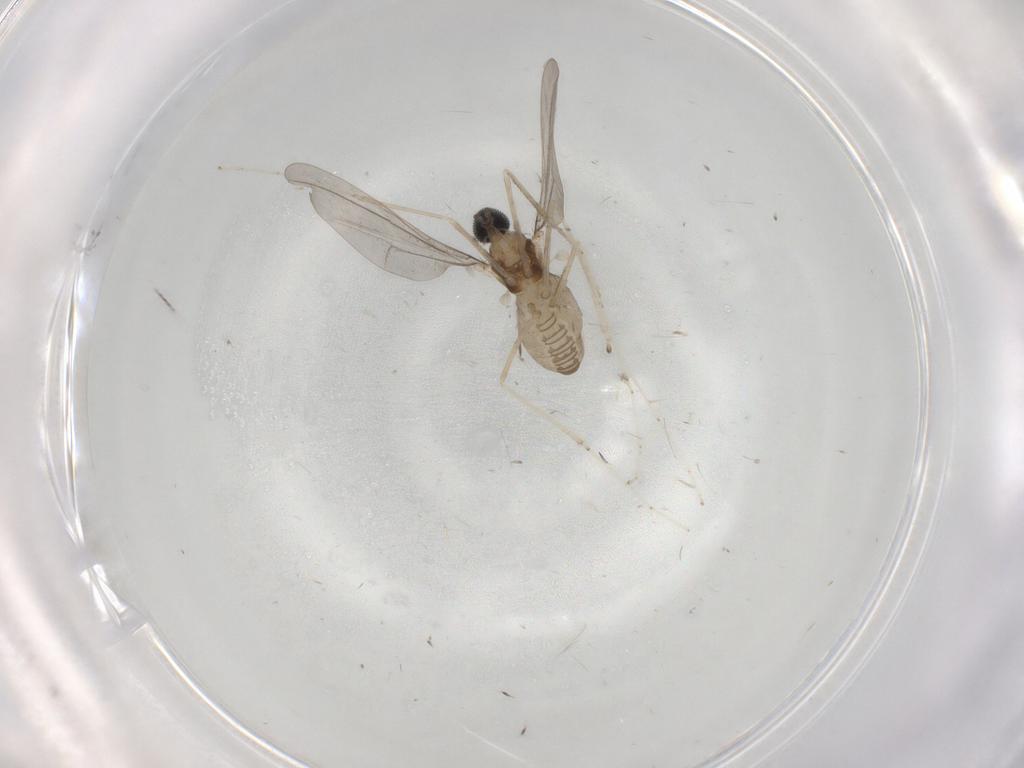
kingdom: Animalia
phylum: Arthropoda
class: Insecta
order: Diptera
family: Cecidomyiidae
